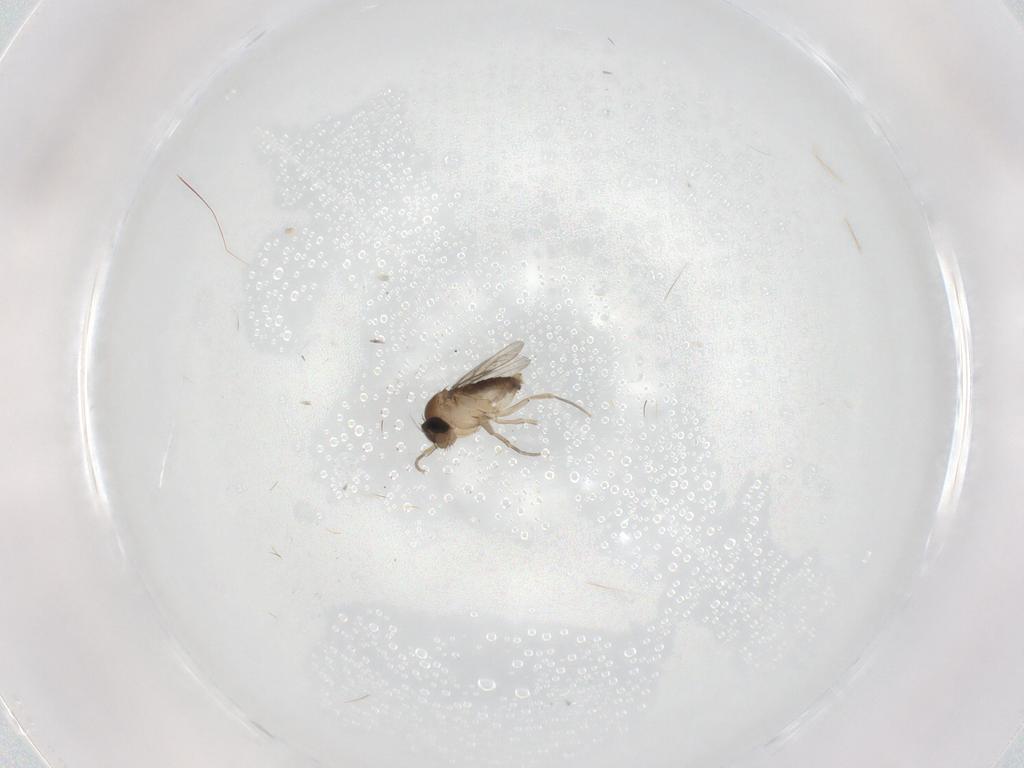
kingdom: Animalia
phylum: Arthropoda
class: Insecta
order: Diptera
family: Phoridae
